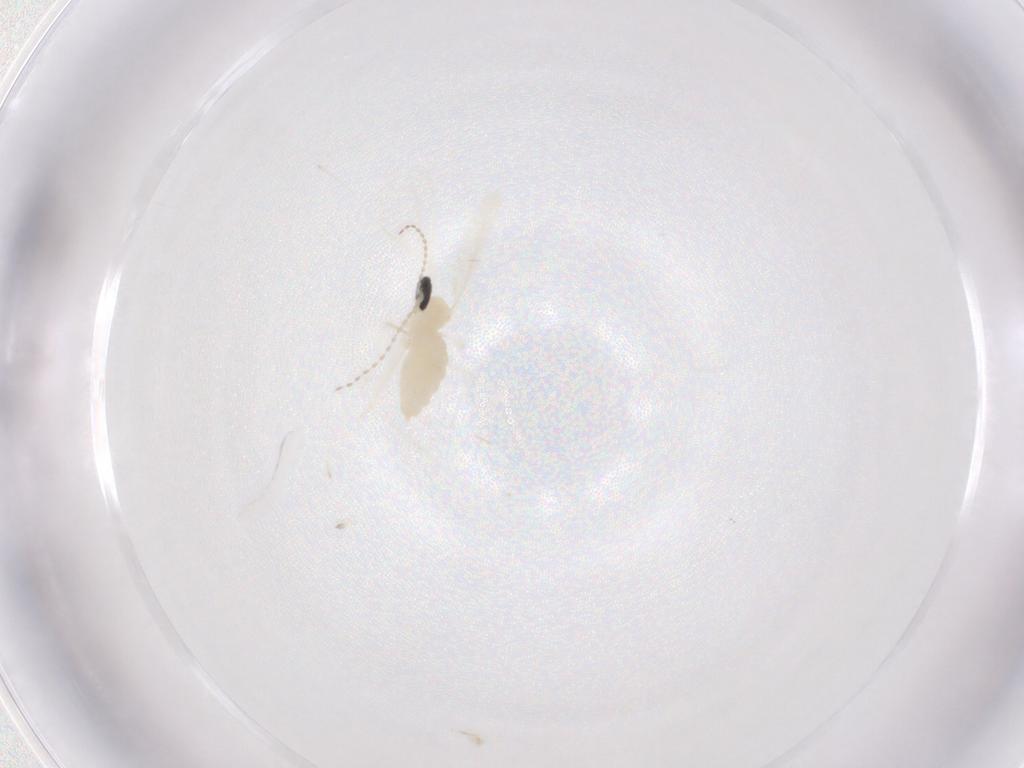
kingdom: Animalia
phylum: Arthropoda
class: Insecta
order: Diptera
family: Cecidomyiidae
